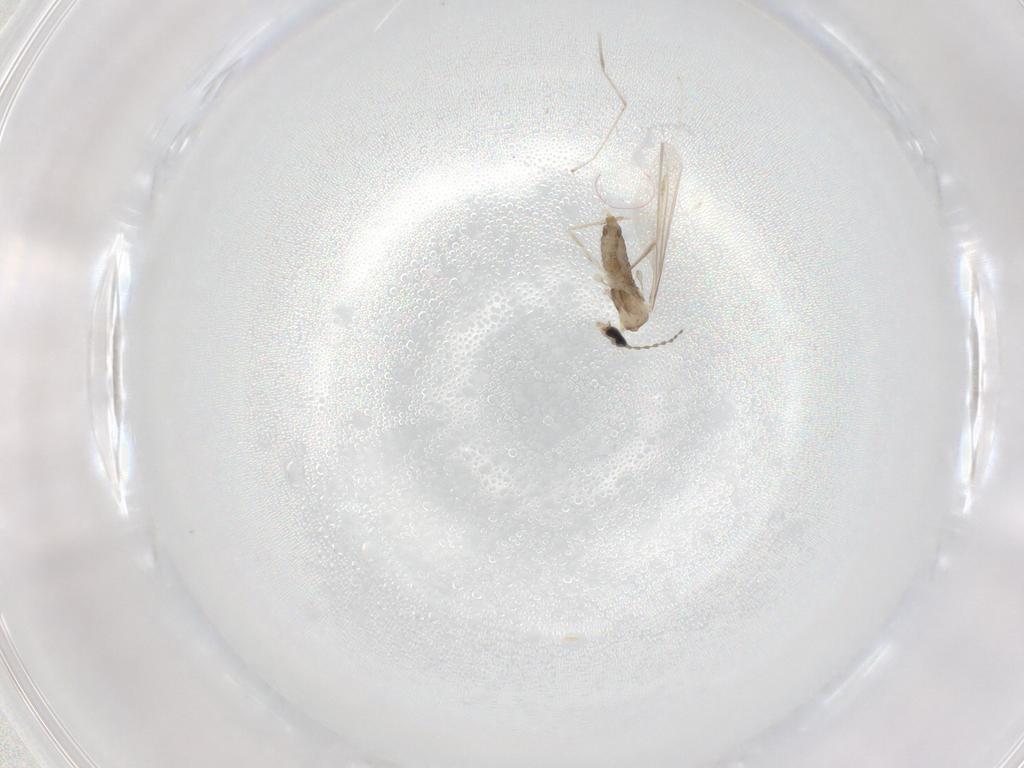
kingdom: Animalia
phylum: Arthropoda
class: Insecta
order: Diptera
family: Cecidomyiidae
